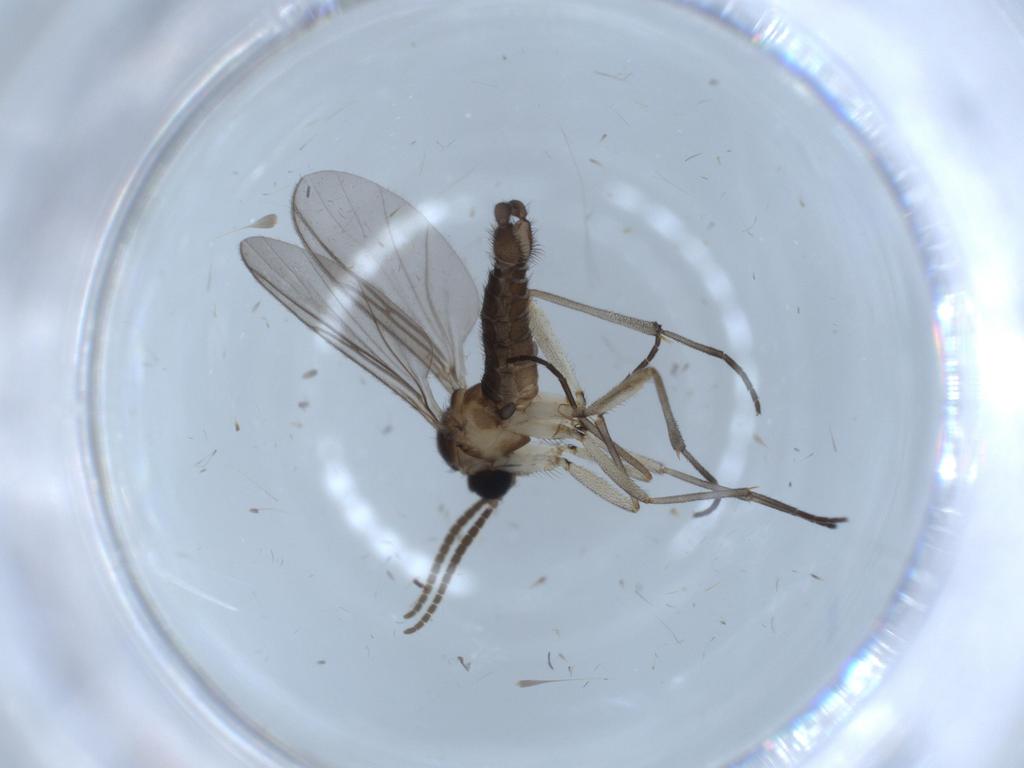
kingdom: Animalia
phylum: Arthropoda
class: Insecta
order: Diptera
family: Sciaridae
